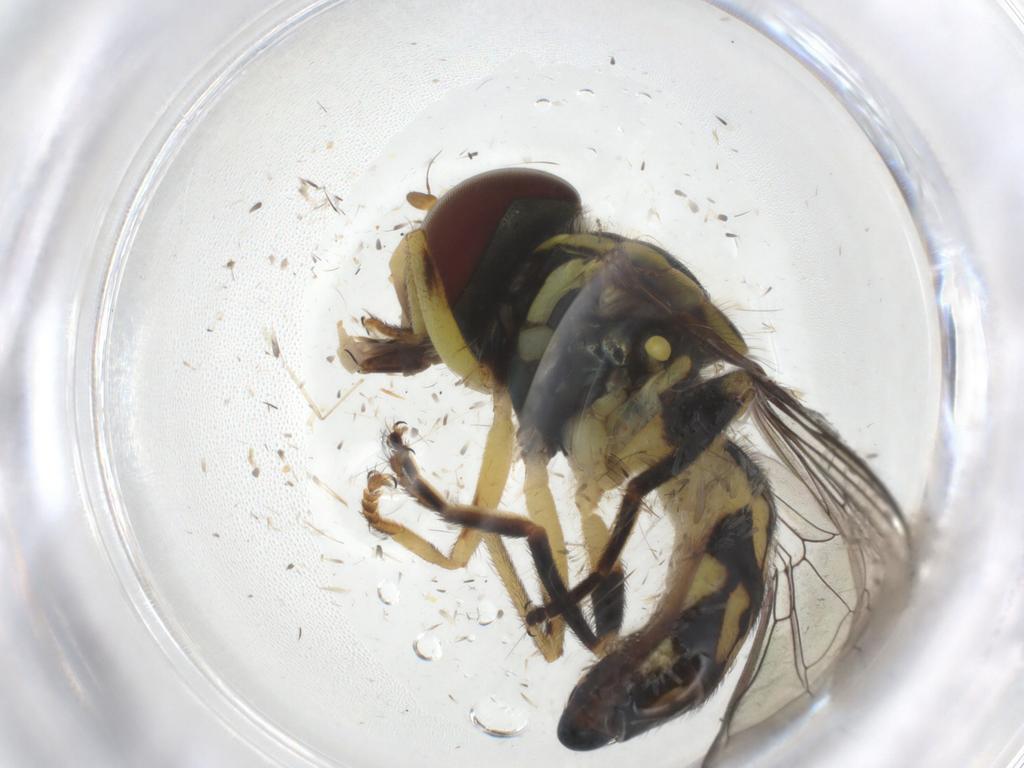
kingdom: Animalia
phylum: Arthropoda
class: Insecta
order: Diptera
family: Syrphidae
